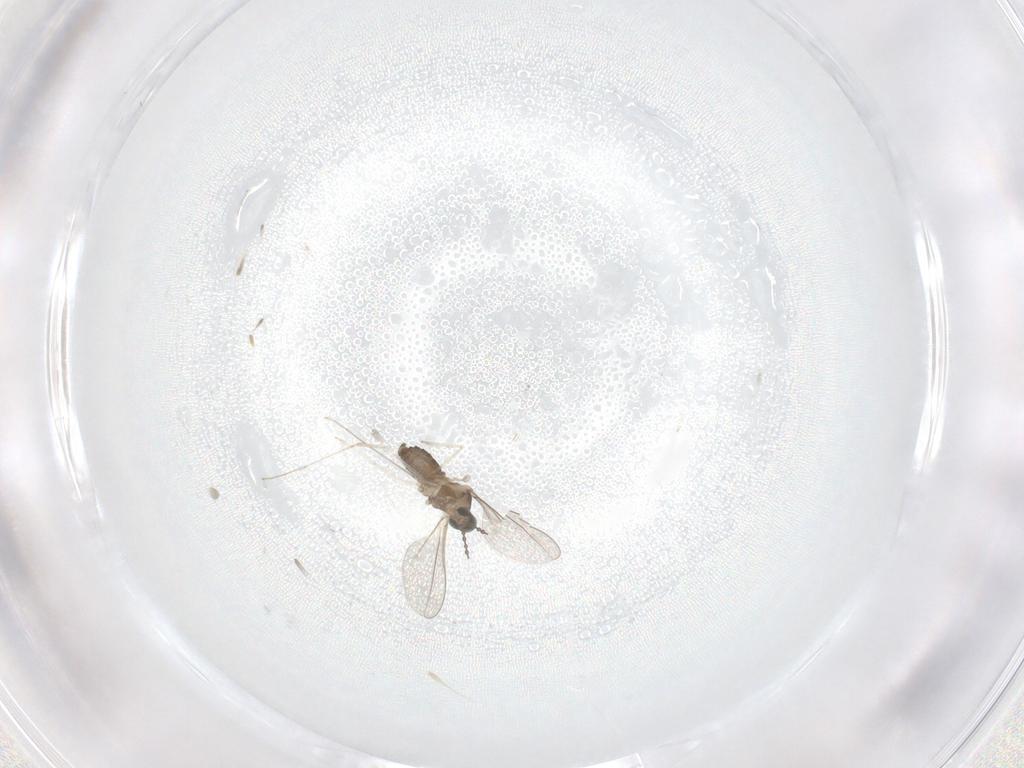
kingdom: Animalia
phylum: Arthropoda
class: Insecta
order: Diptera
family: Cecidomyiidae
